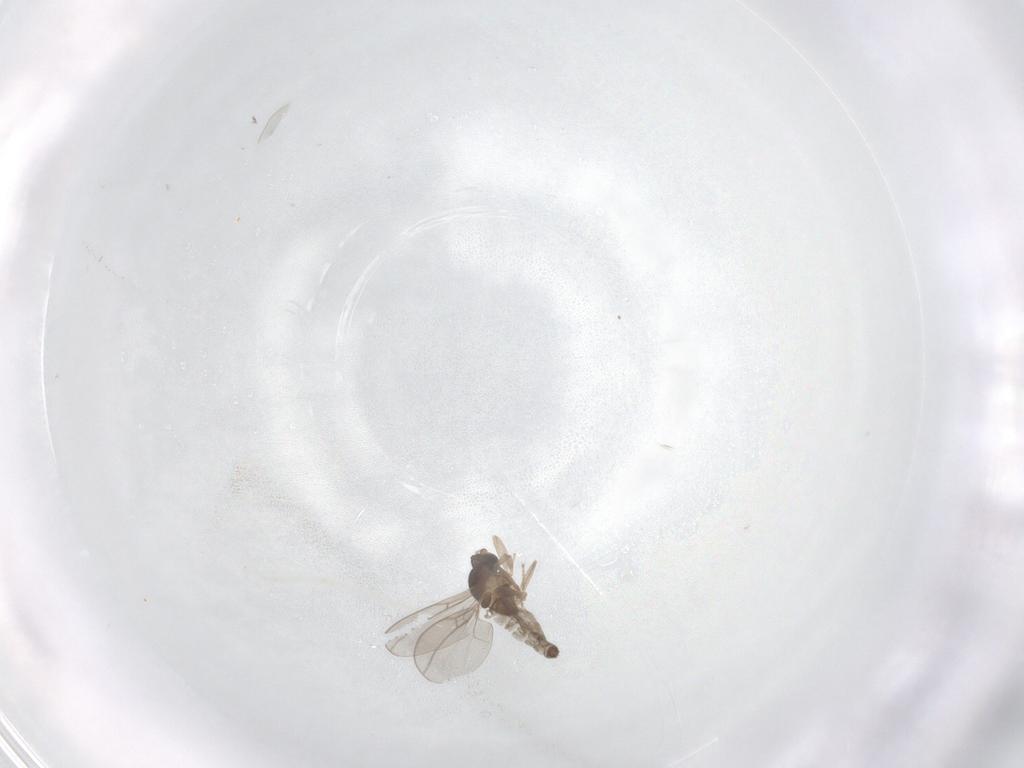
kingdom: Animalia
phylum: Arthropoda
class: Insecta
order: Diptera
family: Cecidomyiidae
